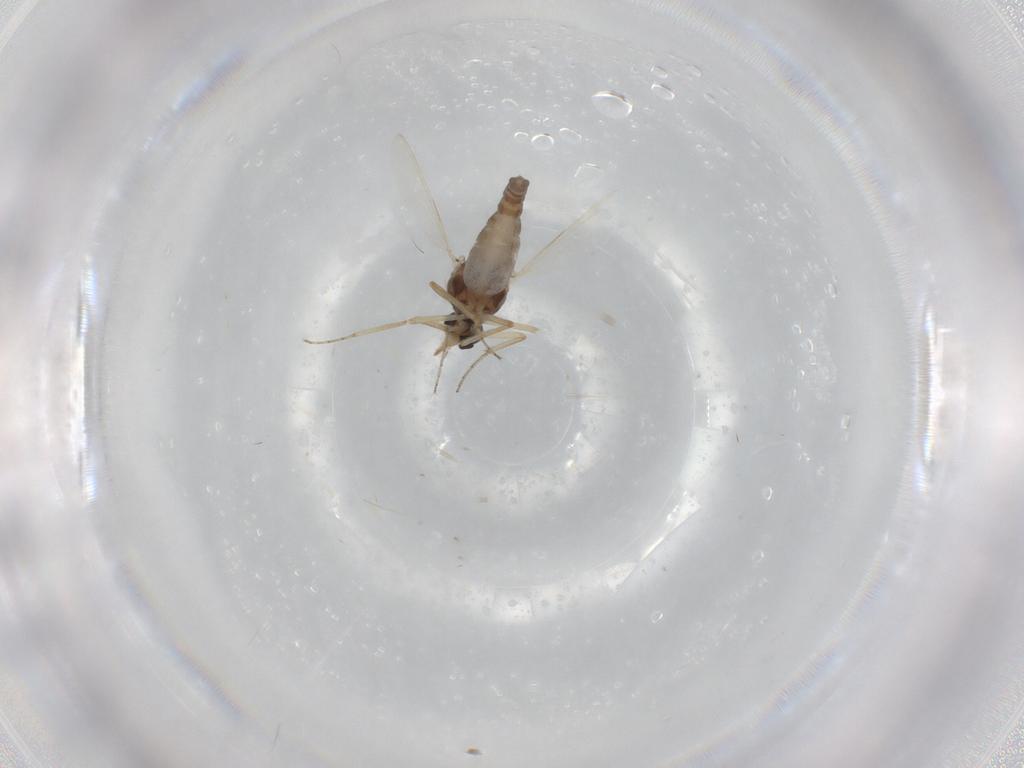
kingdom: Animalia
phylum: Arthropoda
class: Insecta
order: Diptera
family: Ceratopogonidae
